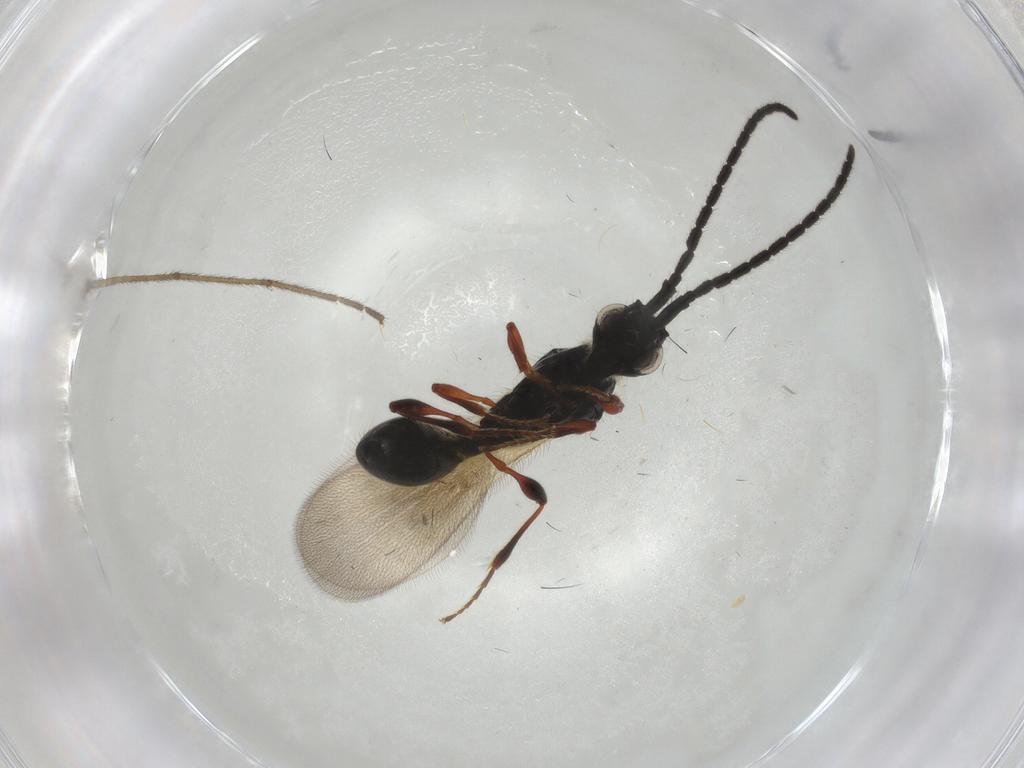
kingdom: Animalia
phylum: Arthropoda
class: Insecta
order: Diptera
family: Limoniidae
